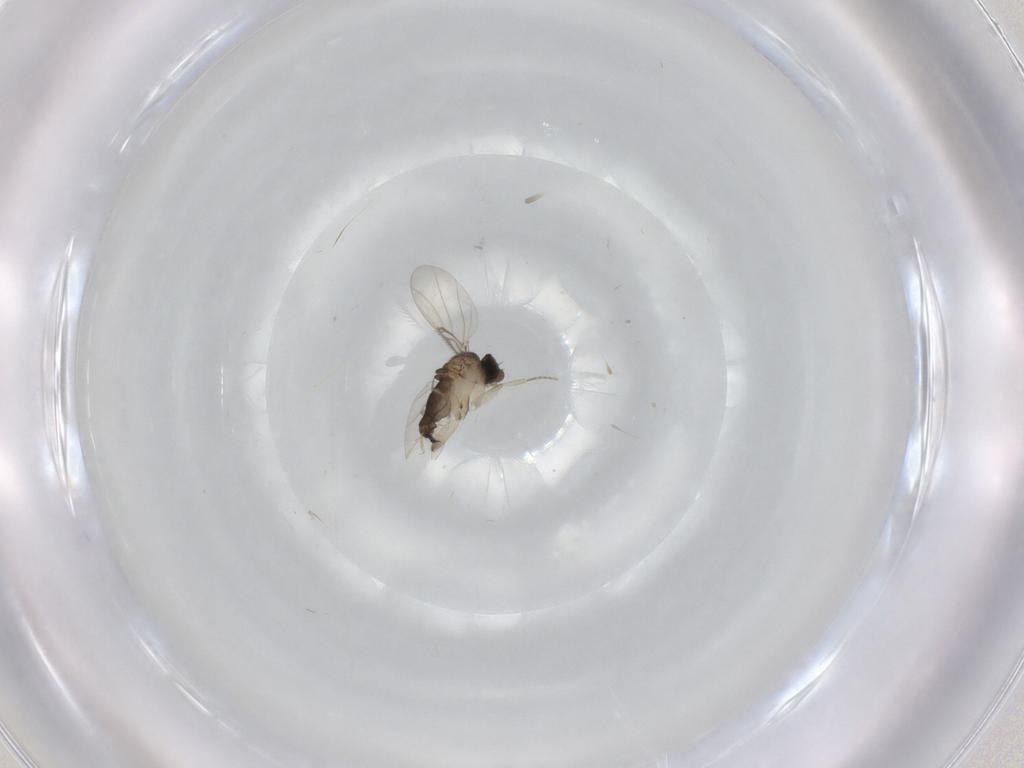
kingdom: Animalia
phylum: Arthropoda
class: Insecta
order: Diptera
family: Phoridae
